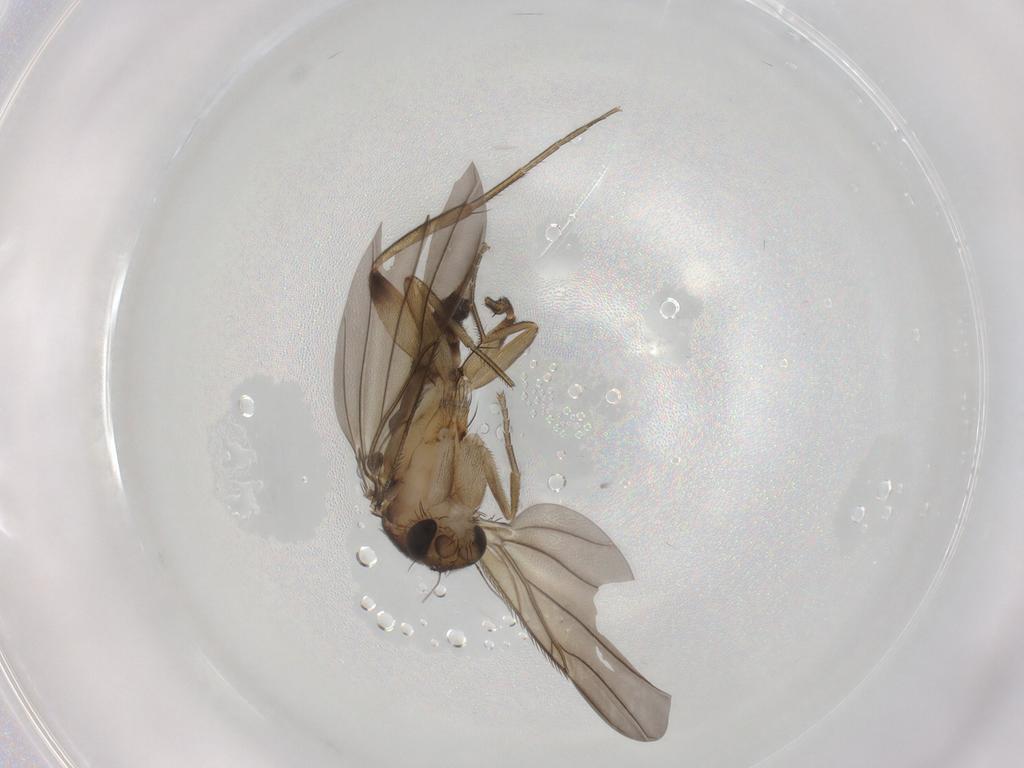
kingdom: Animalia
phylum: Arthropoda
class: Insecta
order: Diptera
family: Phoridae
